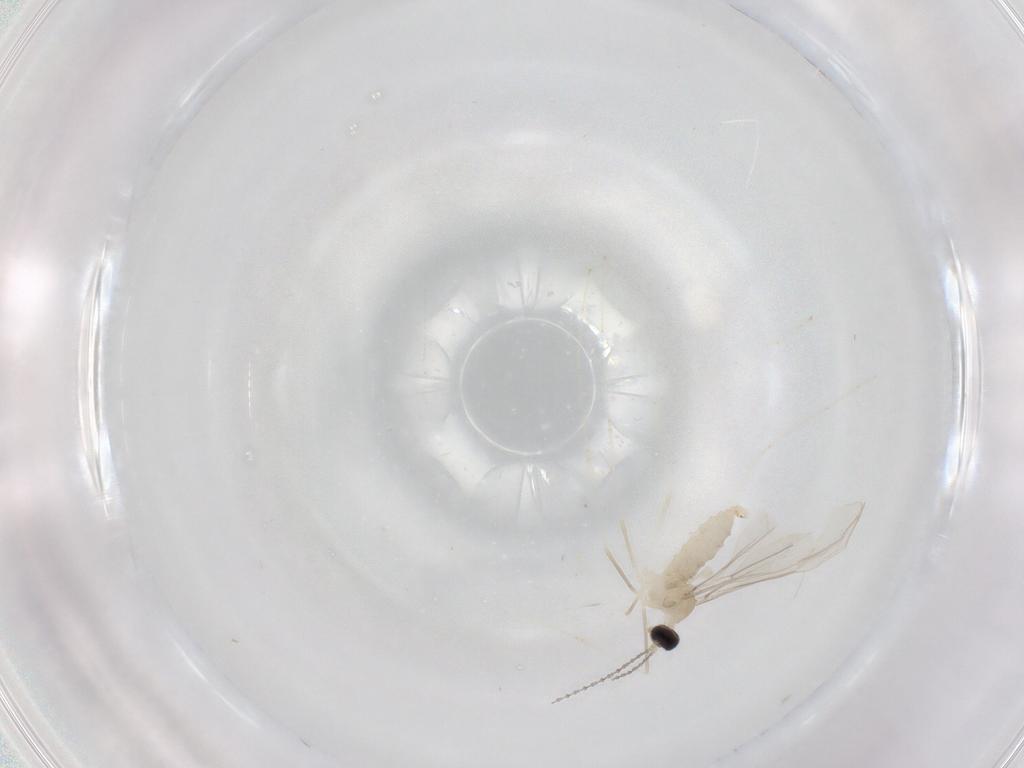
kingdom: Animalia
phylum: Arthropoda
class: Insecta
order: Diptera
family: Cecidomyiidae
